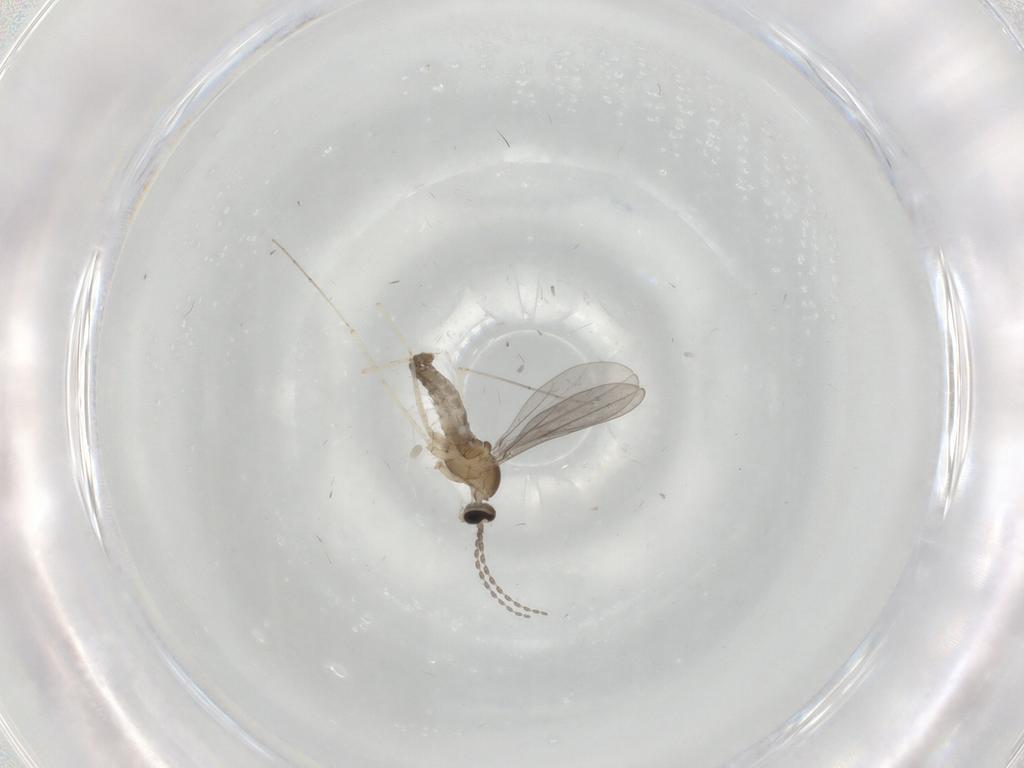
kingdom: Animalia
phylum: Arthropoda
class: Insecta
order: Diptera
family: Cecidomyiidae
